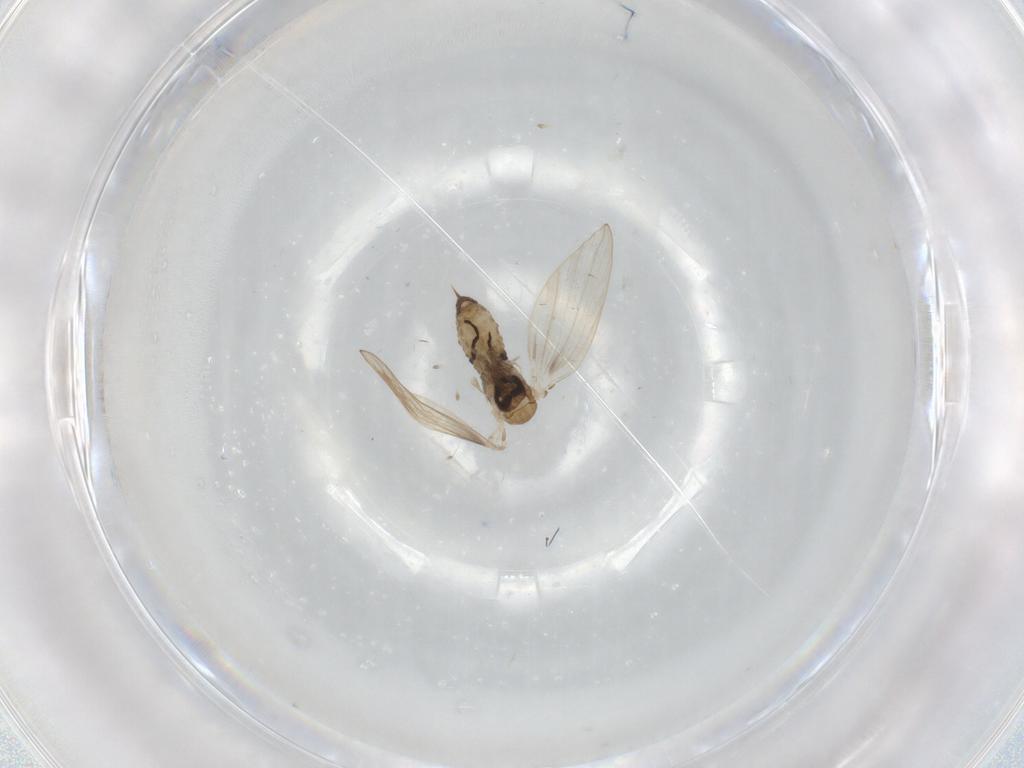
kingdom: Animalia
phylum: Arthropoda
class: Insecta
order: Diptera
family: Psychodidae
